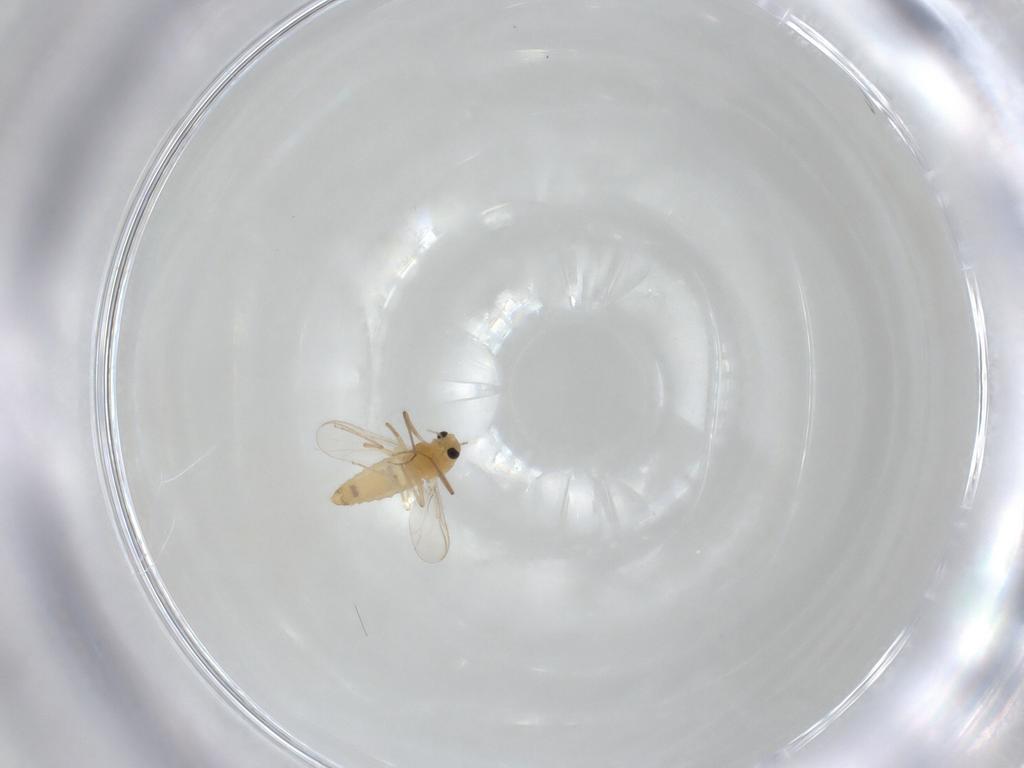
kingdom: Animalia
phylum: Arthropoda
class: Insecta
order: Diptera
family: Chironomidae
